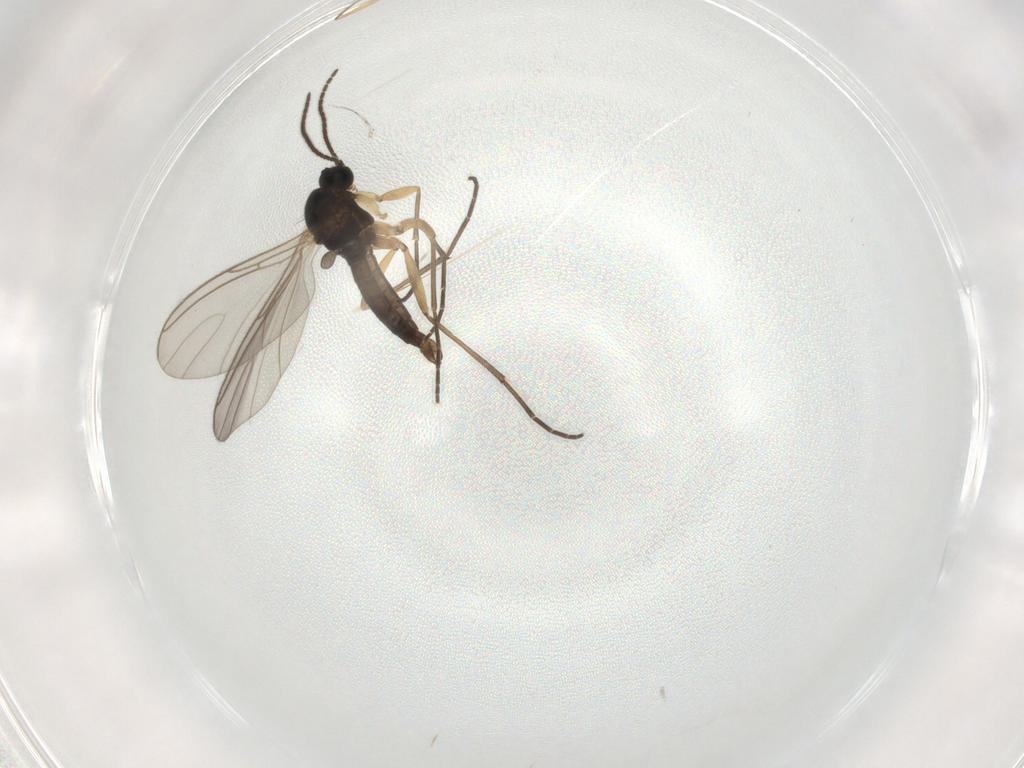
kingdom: Animalia
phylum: Arthropoda
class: Insecta
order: Diptera
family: Sciaridae
